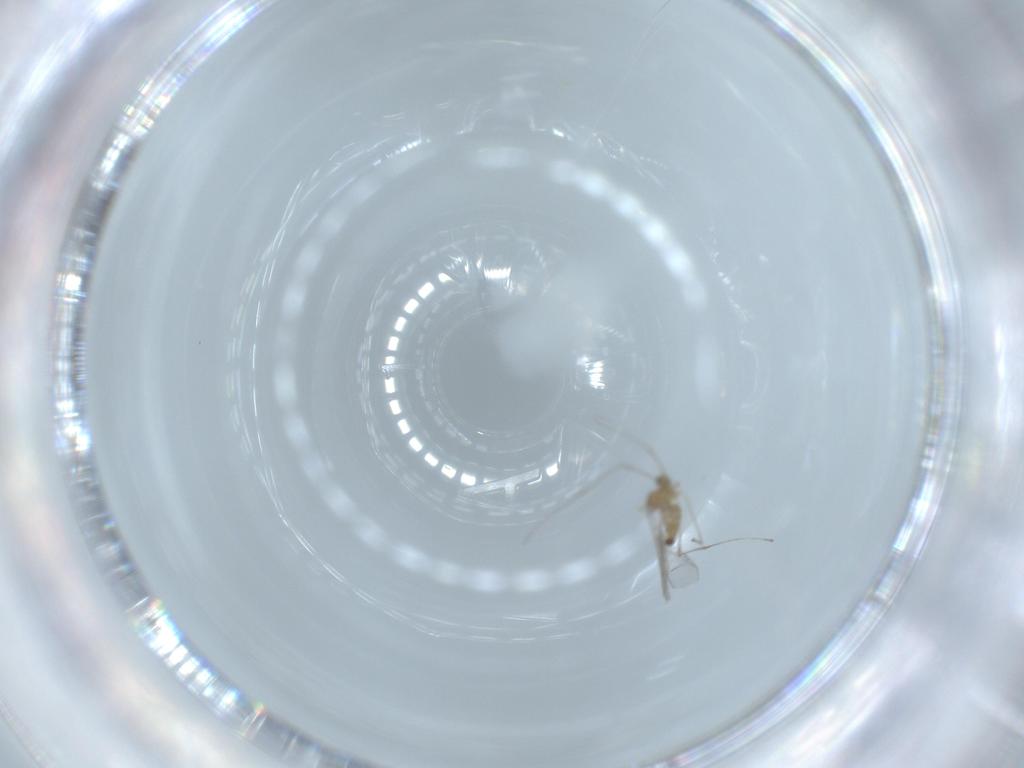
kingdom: Animalia
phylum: Arthropoda
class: Insecta
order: Diptera
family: Cecidomyiidae
